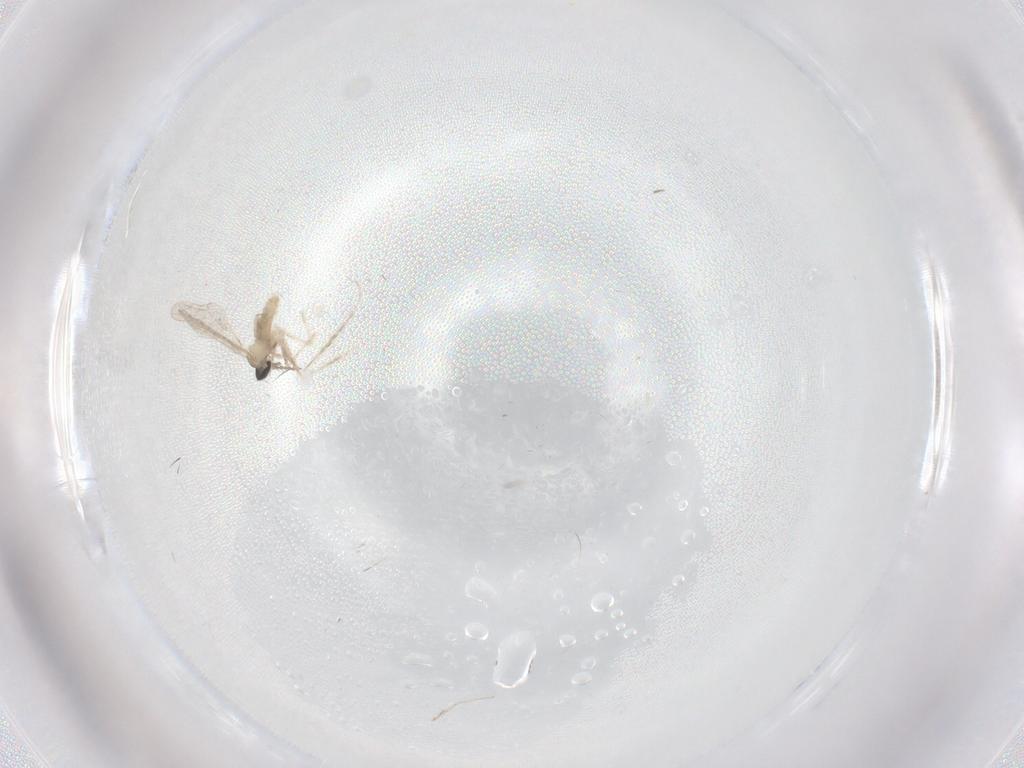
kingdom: Animalia
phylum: Arthropoda
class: Insecta
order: Diptera
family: Cecidomyiidae
